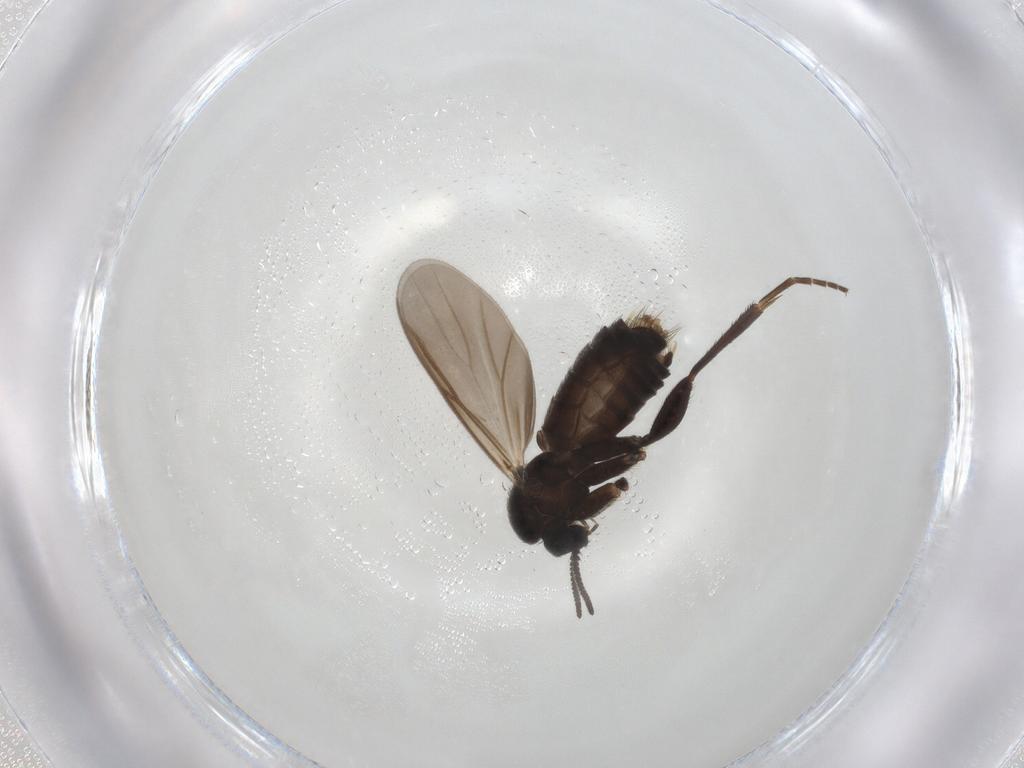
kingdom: Animalia
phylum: Arthropoda
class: Insecta
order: Diptera
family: Mycetophilidae
